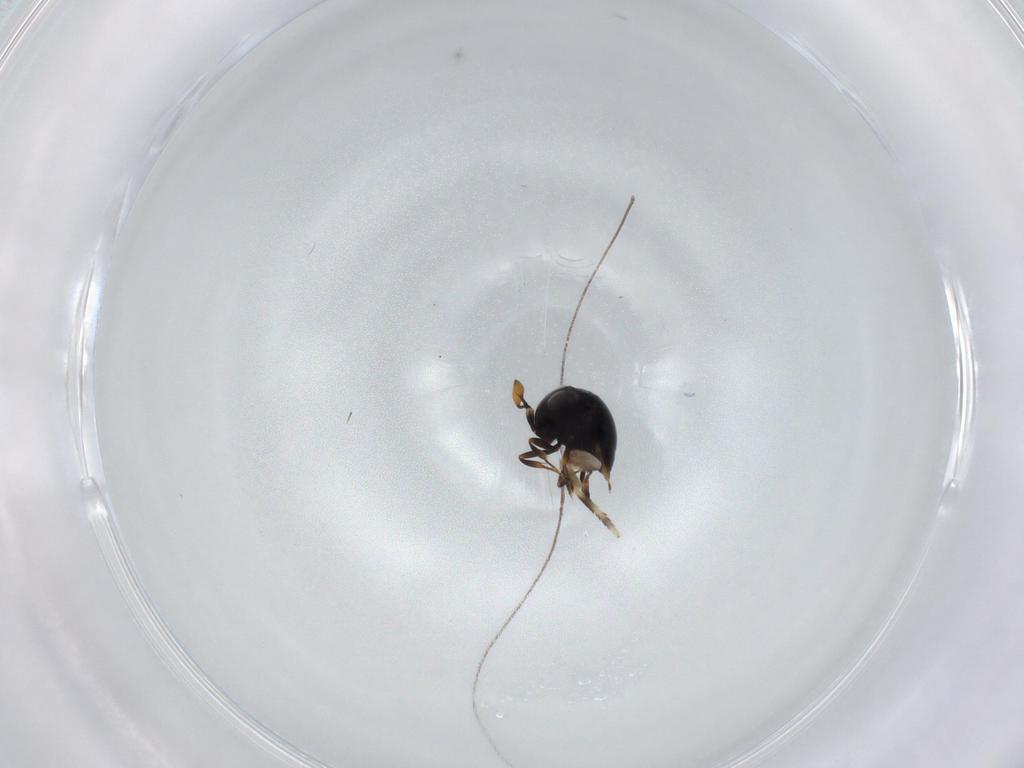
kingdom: Animalia
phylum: Arthropoda
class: Insecta
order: Hymenoptera
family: Scelionidae
